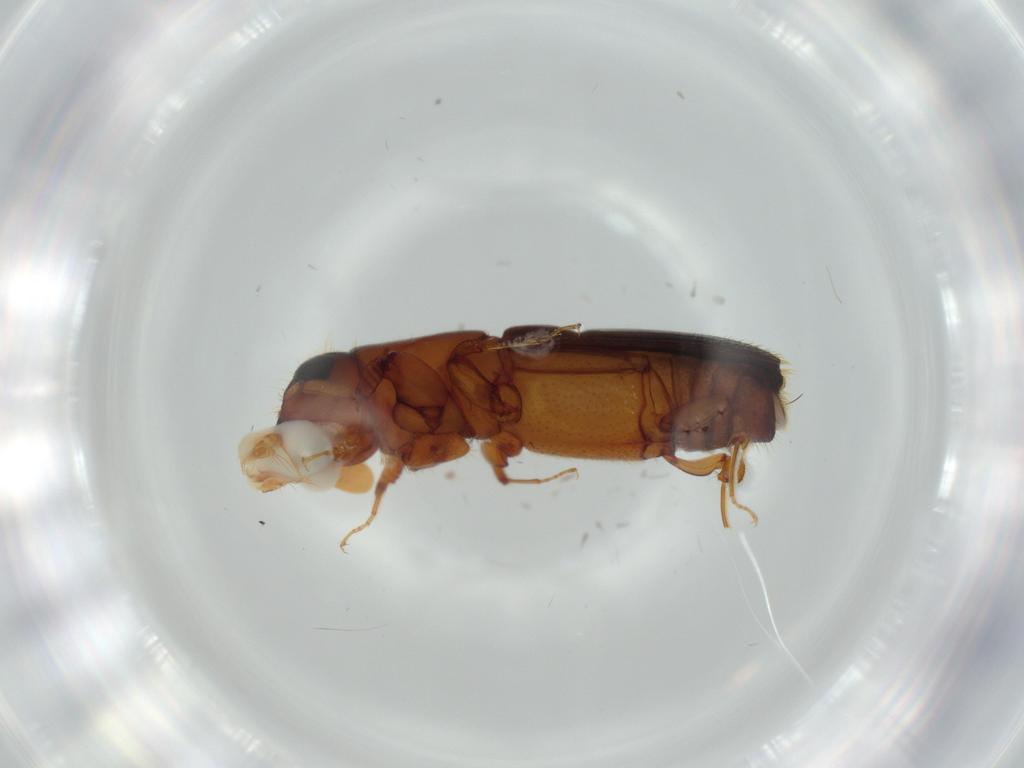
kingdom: Animalia
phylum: Arthropoda
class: Insecta
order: Coleoptera
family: Curculionidae
